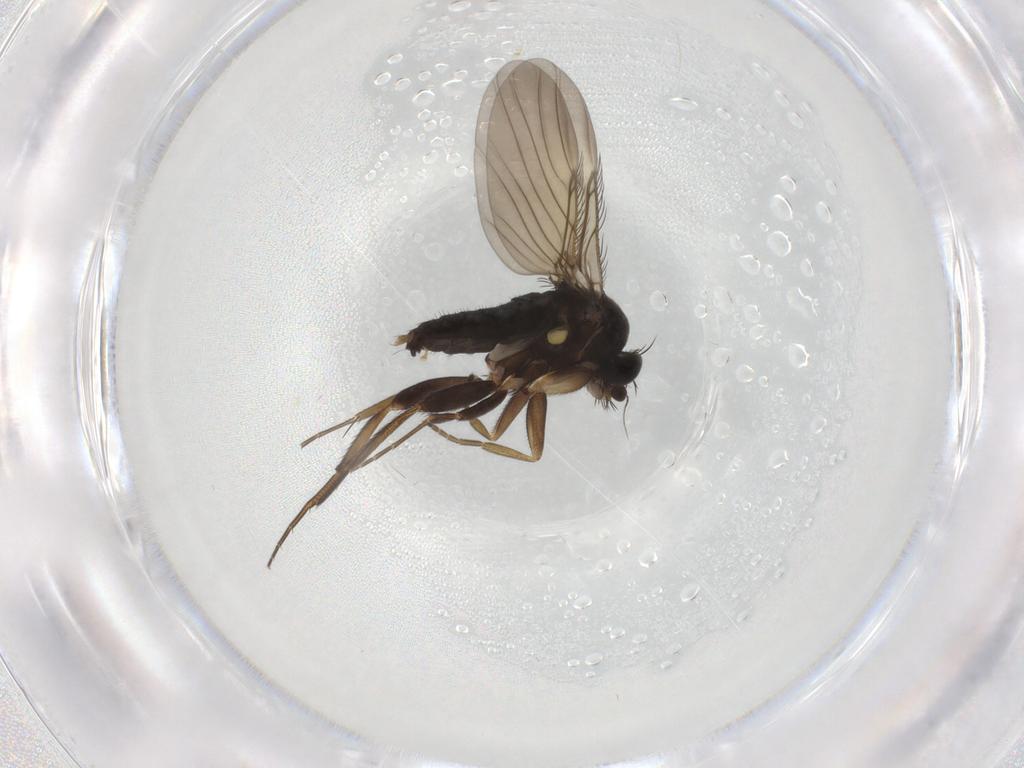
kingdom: Animalia
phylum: Arthropoda
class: Insecta
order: Diptera
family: Phoridae
